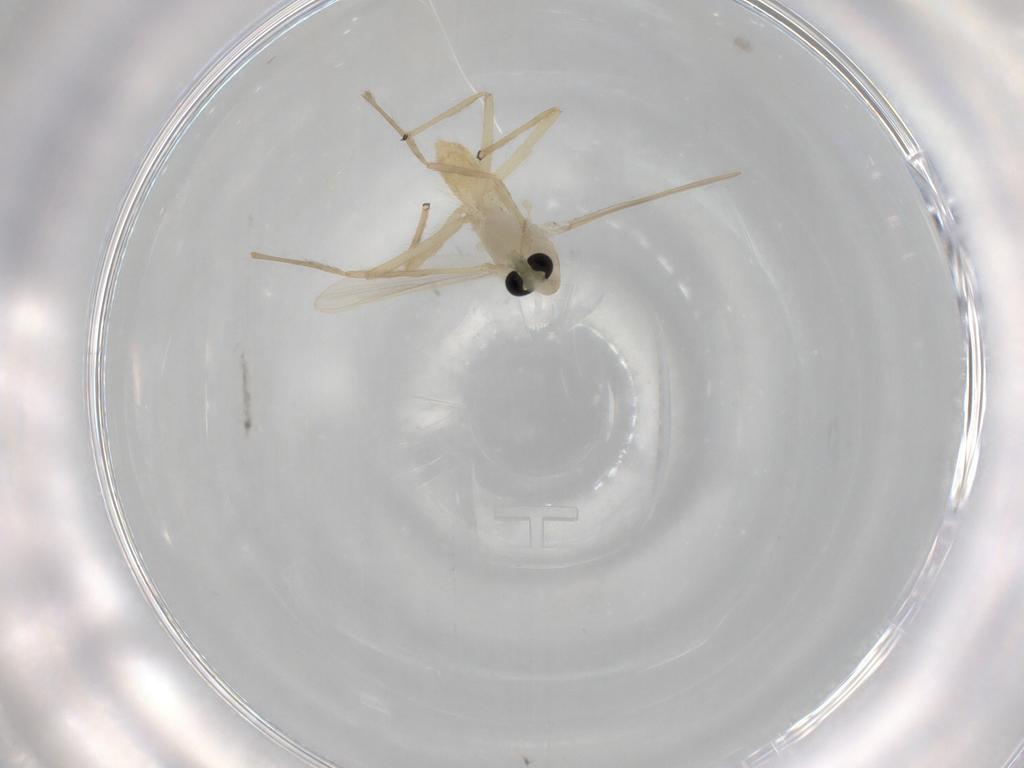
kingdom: Animalia
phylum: Arthropoda
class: Insecta
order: Diptera
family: Chironomidae
